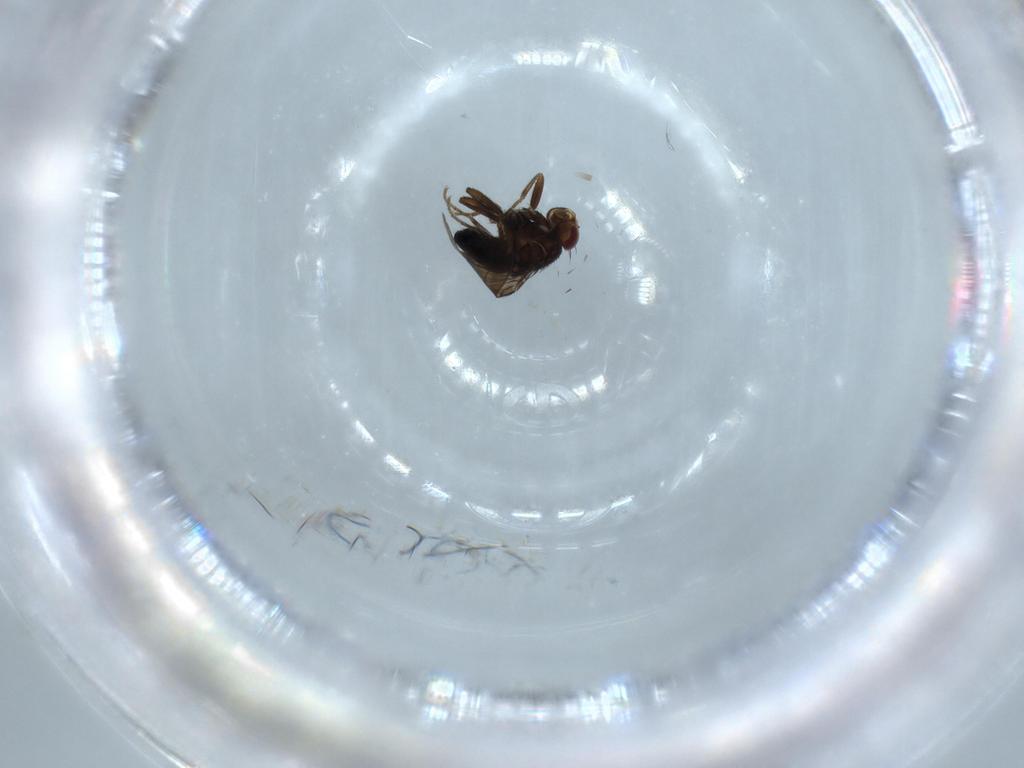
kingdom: Animalia
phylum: Arthropoda
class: Insecta
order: Diptera
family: Sphaeroceridae
